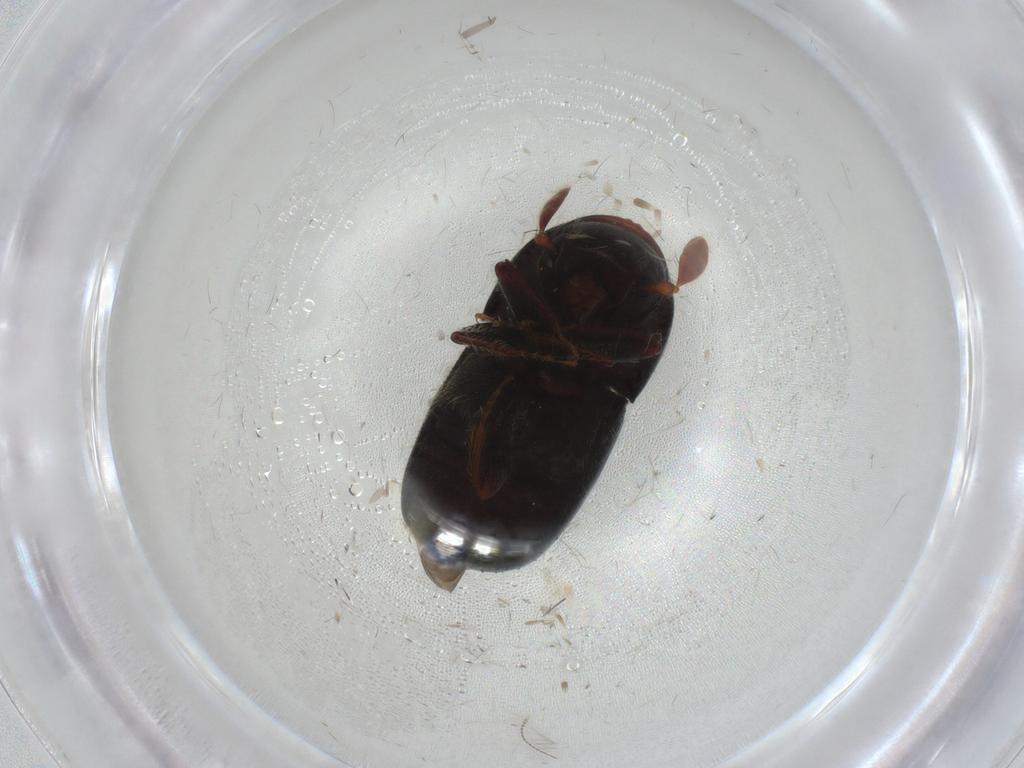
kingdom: Animalia
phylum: Arthropoda
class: Insecta
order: Coleoptera
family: Curculionidae
